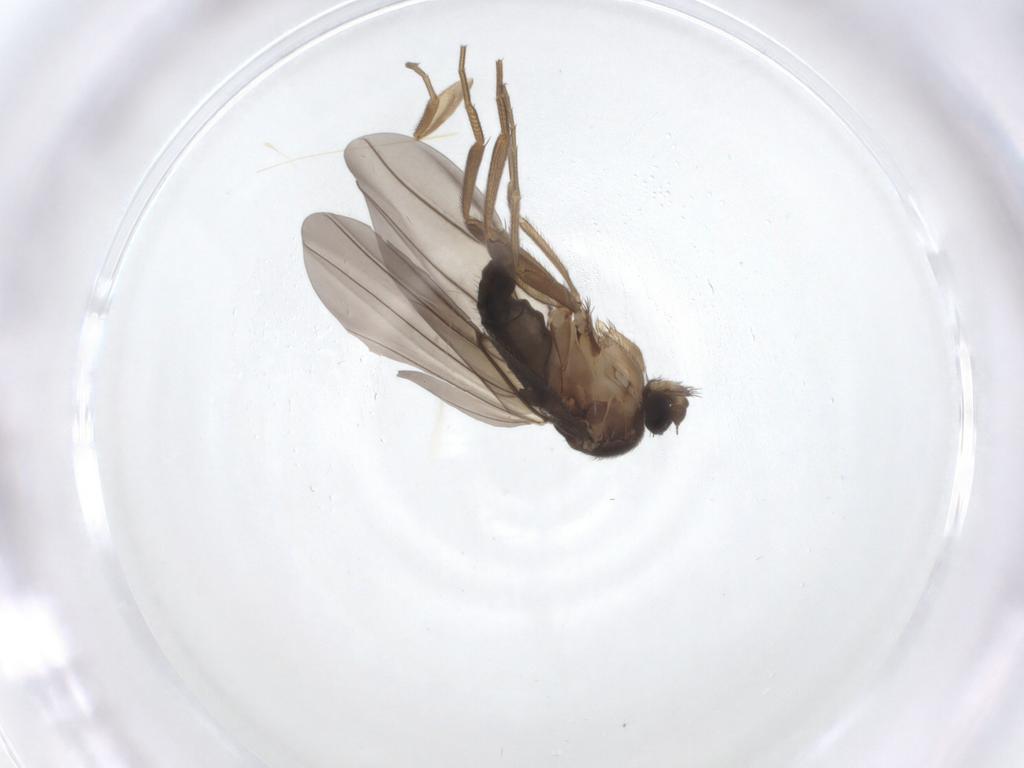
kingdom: Animalia
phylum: Arthropoda
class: Insecta
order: Diptera
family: Phoridae
